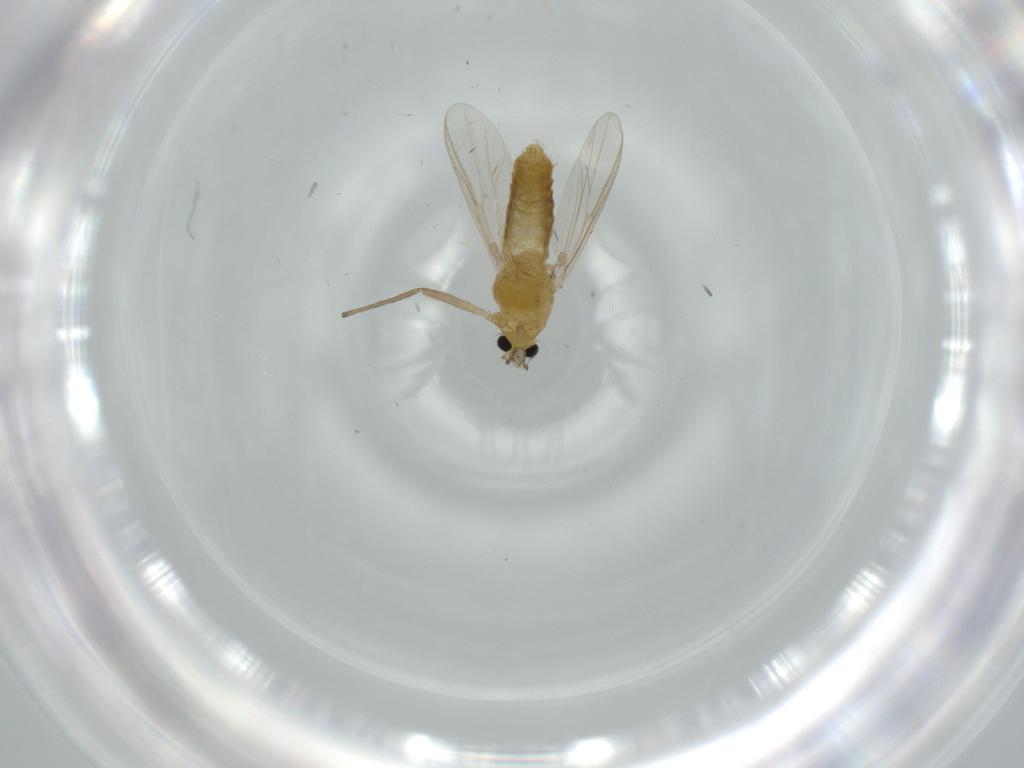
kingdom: Animalia
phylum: Arthropoda
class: Insecta
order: Diptera
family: Chironomidae
